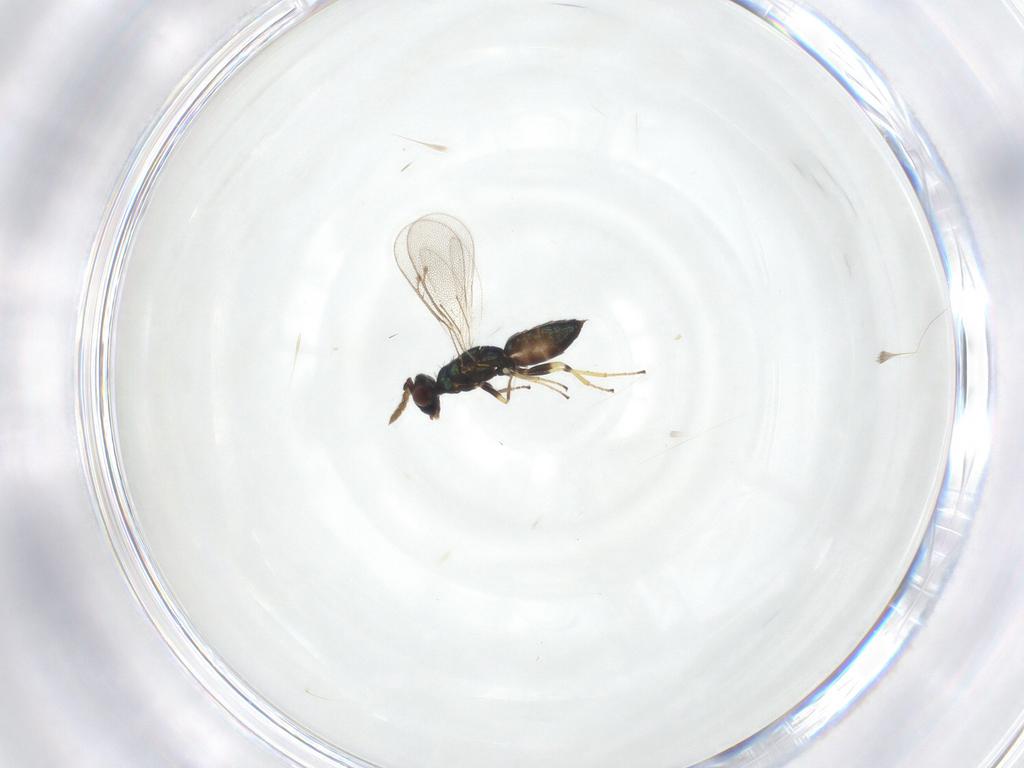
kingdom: Animalia
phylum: Arthropoda
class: Insecta
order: Hymenoptera
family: Eulophidae
